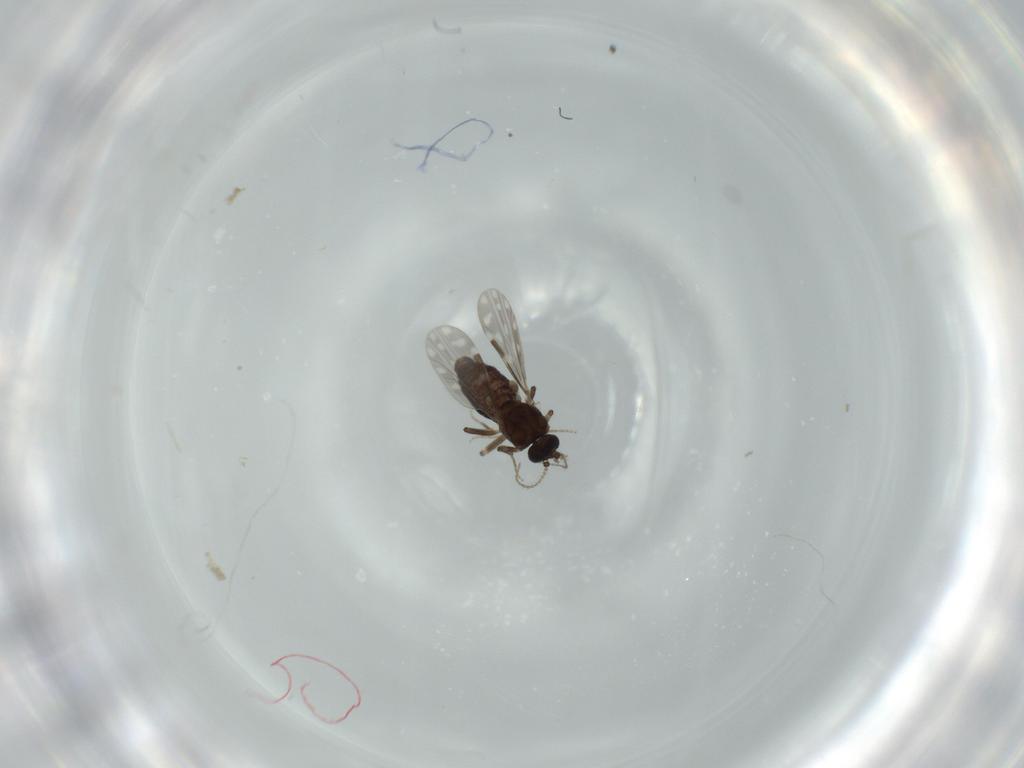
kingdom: Animalia
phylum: Arthropoda
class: Insecta
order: Diptera
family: Ceratopogonidae
